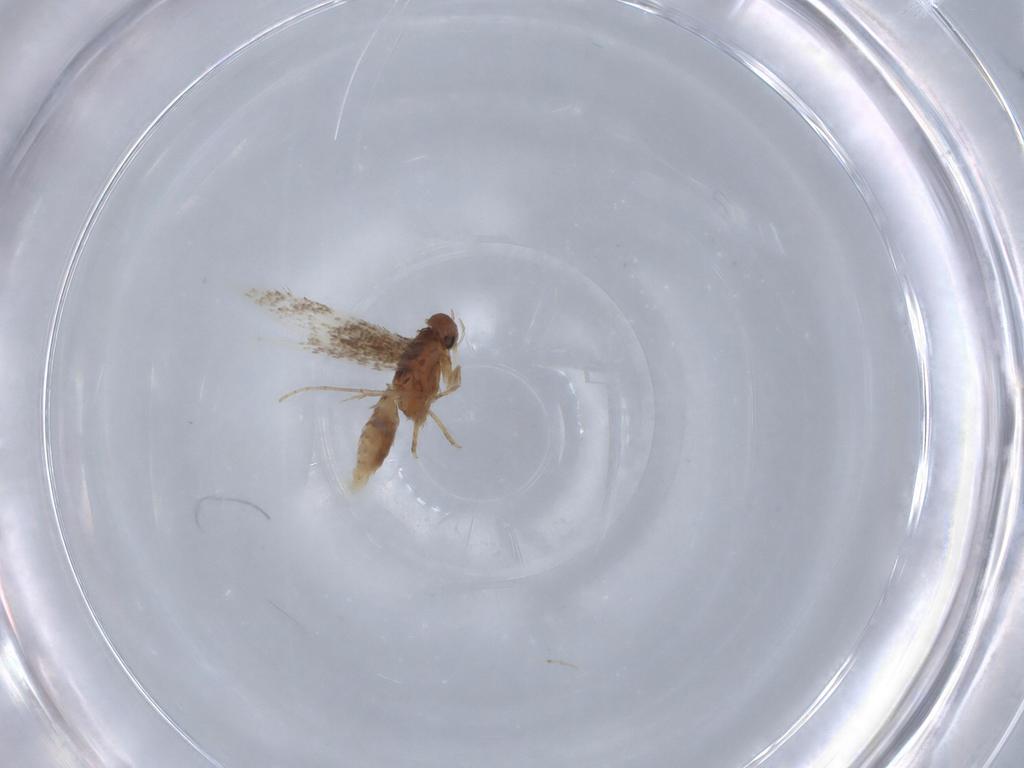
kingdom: Animalia
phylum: Arthropoda
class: Insecta
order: Lepidoptera
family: Elachistidae
